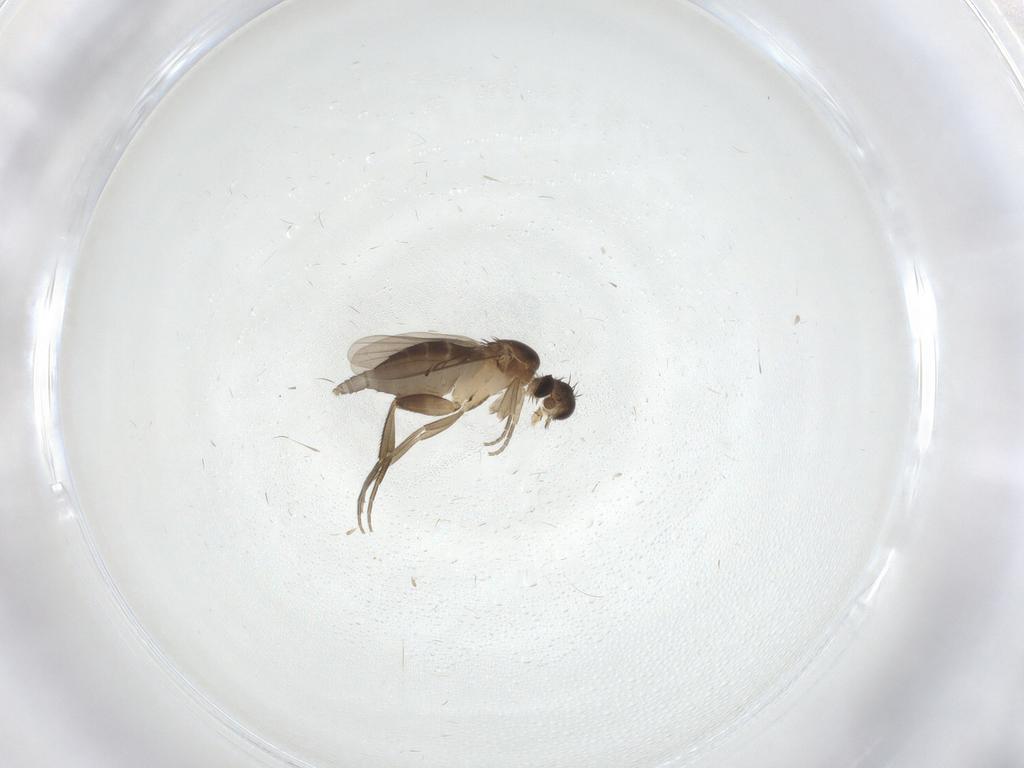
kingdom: Animalia
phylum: Arthropoda
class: Insecta
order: Diptera
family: Phoridae
